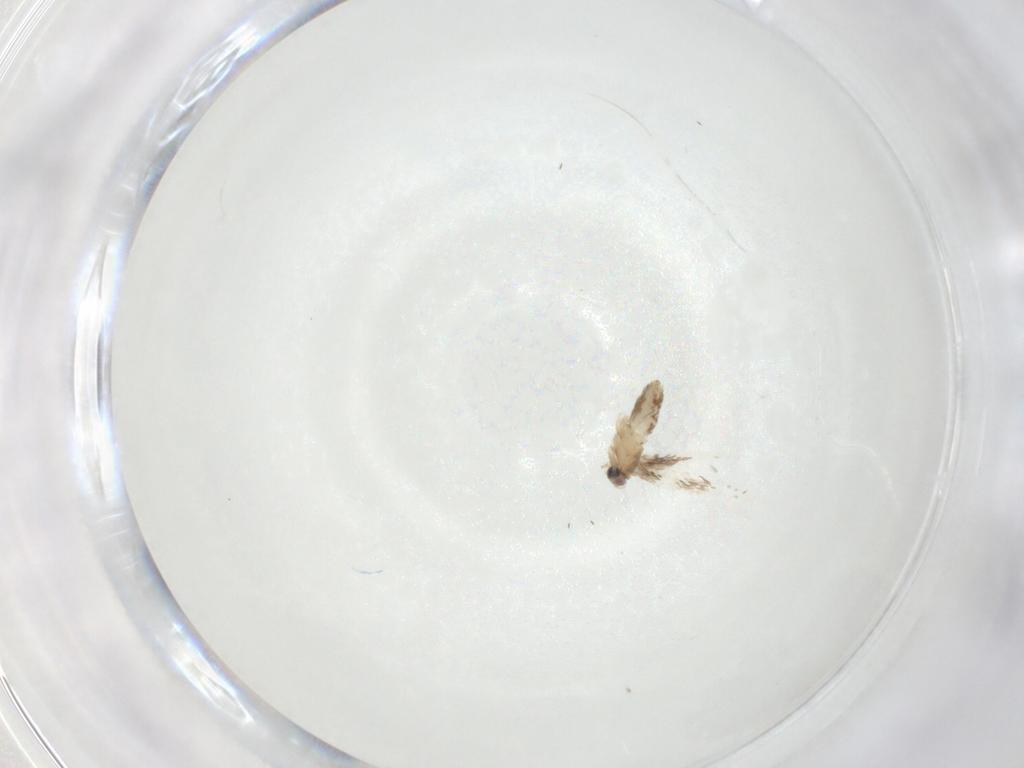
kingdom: Animalia
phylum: Arthropoda
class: Insecta
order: Lepidoptera
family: Nepticulidae
